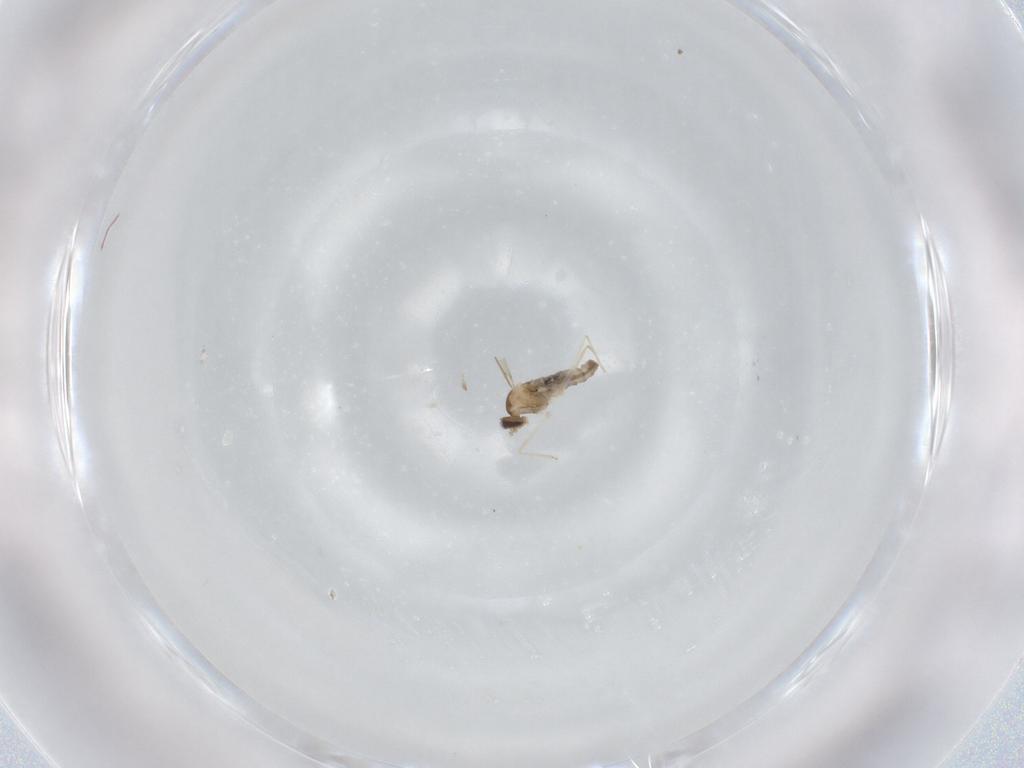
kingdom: Animalia
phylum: Arthropoda
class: Insecta
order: Diptera
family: Cecidomyiidae
